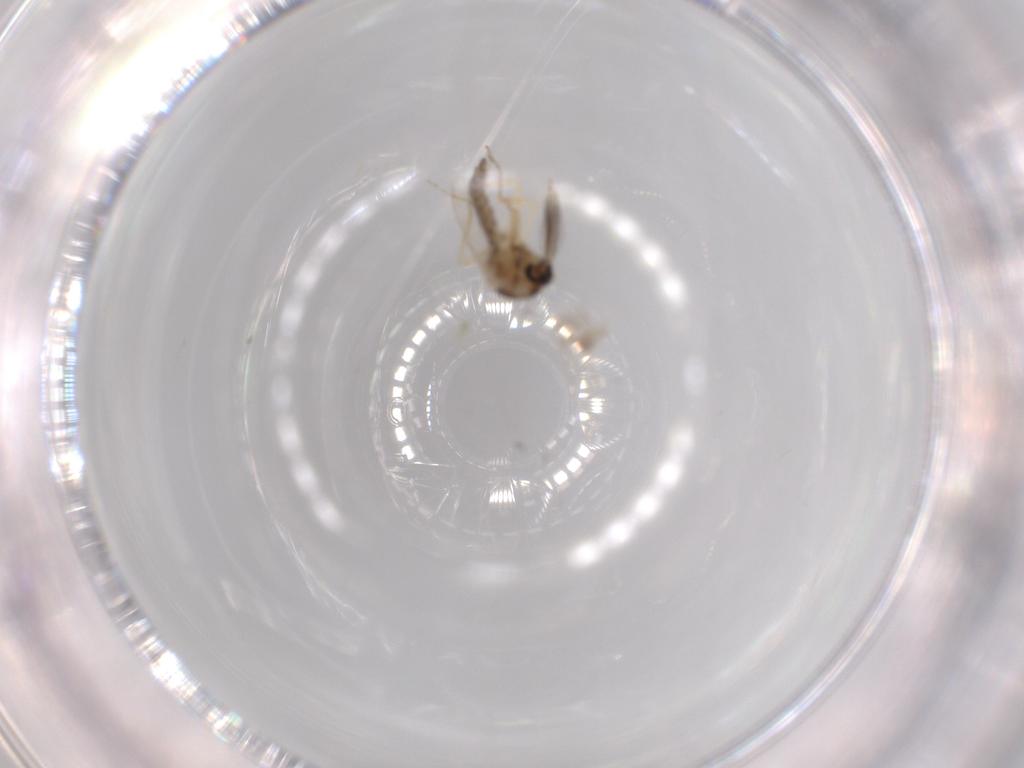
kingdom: Animalia
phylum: Arthropoda
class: Insecta
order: Diptera
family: Ceratopogonidae
